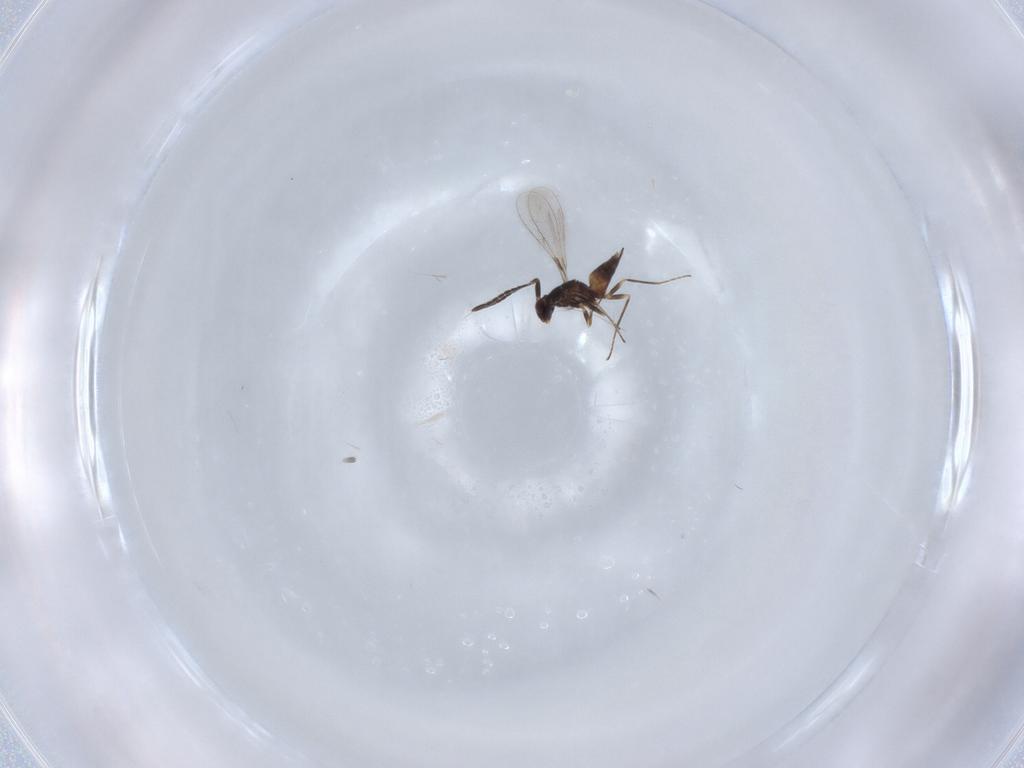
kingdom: Animalia
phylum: Arthropoda
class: Insecta
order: Hymenoptera
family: Mymaridae
